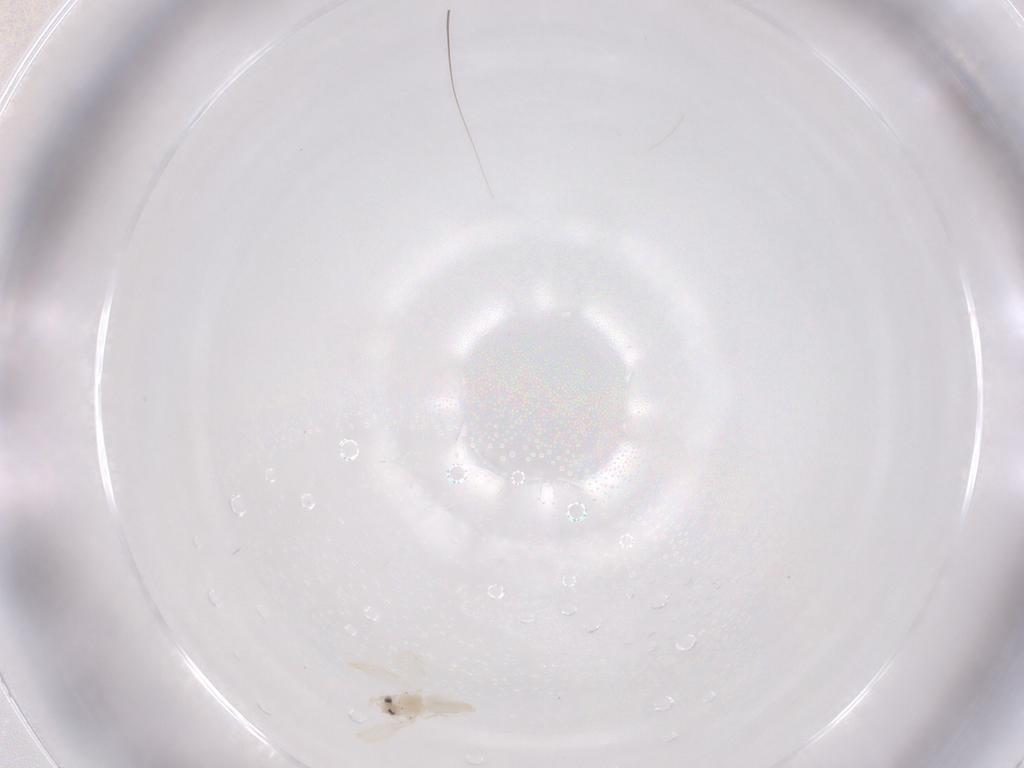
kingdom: Animalia
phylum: Arthropoda
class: Insecta
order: Hemiptera
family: Aleyrodidae
